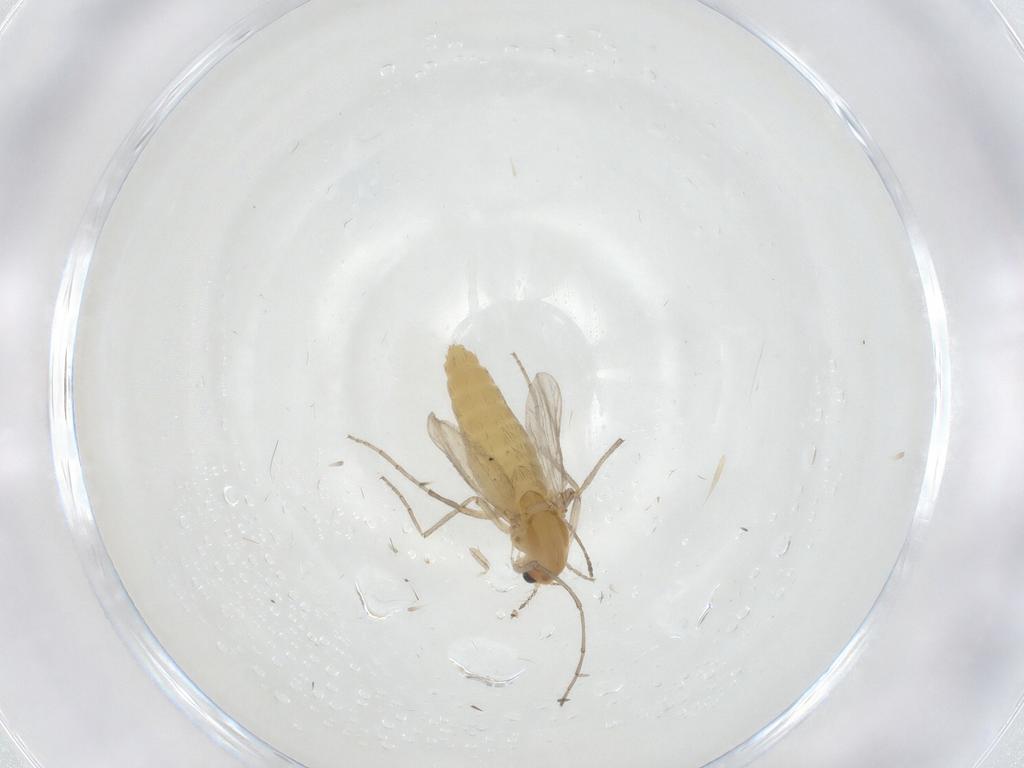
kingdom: Animalia
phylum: Arthropoda
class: Insecta
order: Diptera
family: Chironomidae
